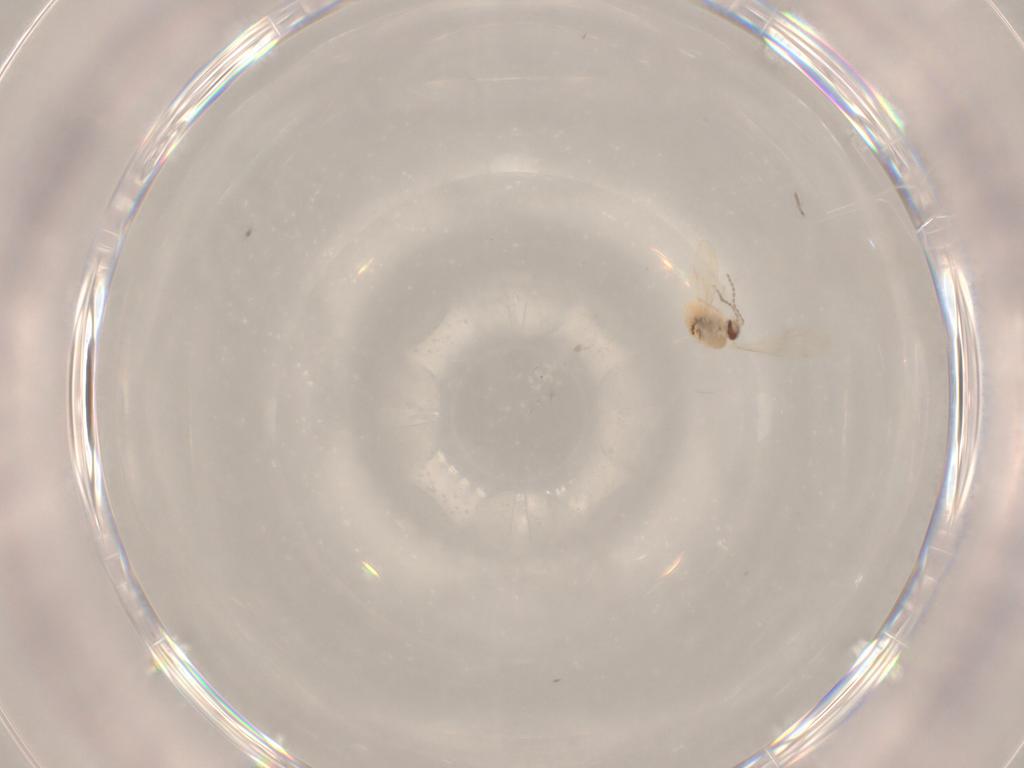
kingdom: Animalia
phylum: Arthropoda
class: Insecta
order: Diptera
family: Cecidomyiidae
